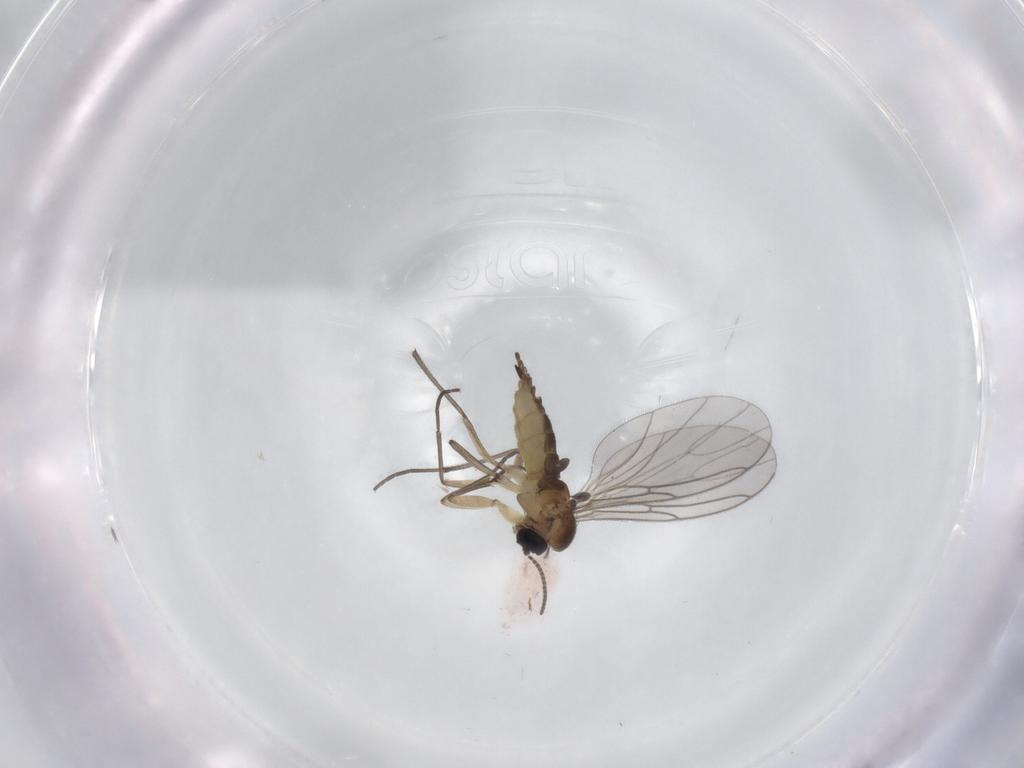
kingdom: Animalia
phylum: Arthropoda
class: Insecta
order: Diptera
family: Sciaridae
